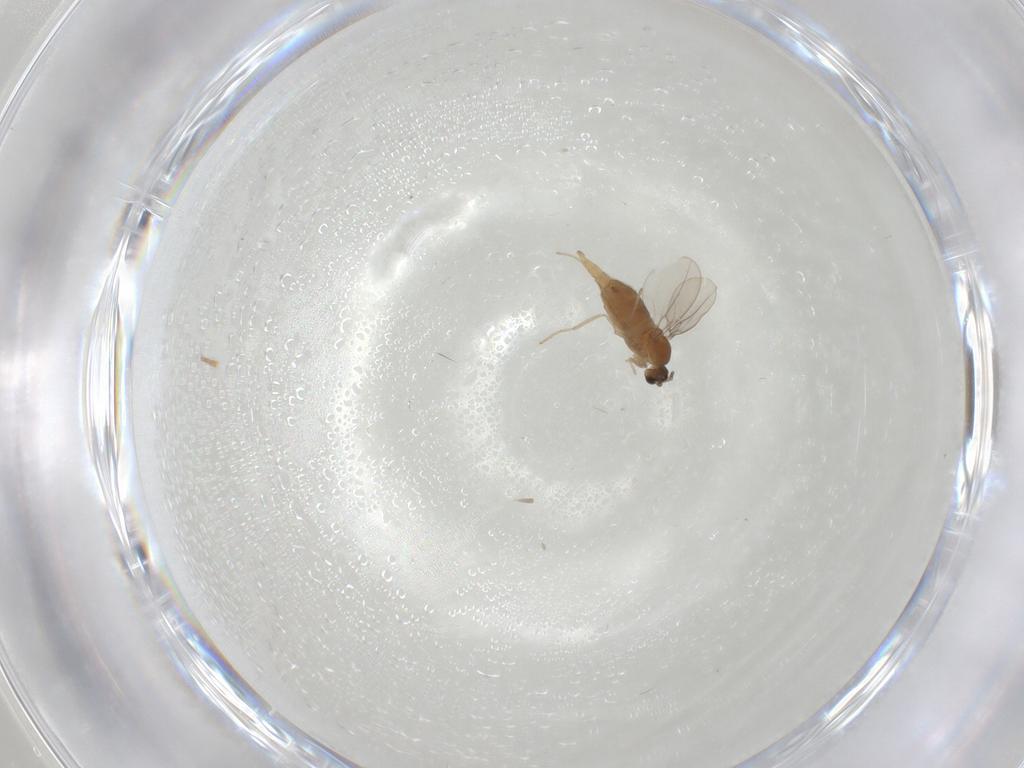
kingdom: Animalia
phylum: Arthropoda
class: Insecta
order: Diptera
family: Cecidomyiidae
